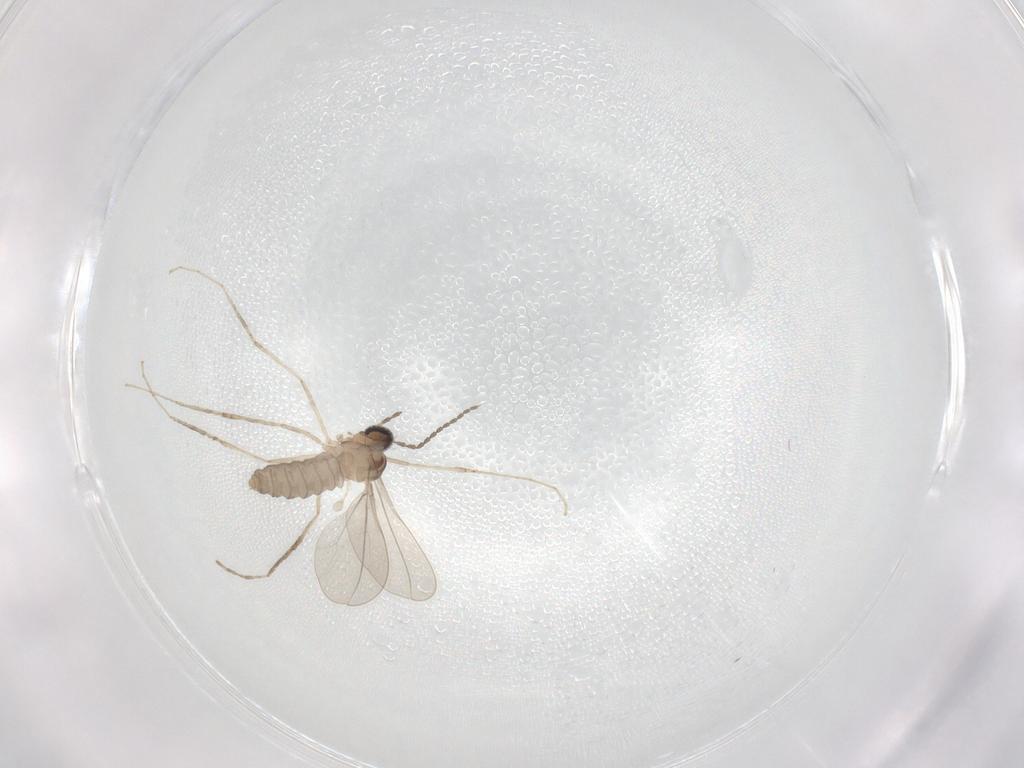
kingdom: Animalia
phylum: Arthropoda
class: Insecta
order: Diptera
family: Cecidomyiidae
